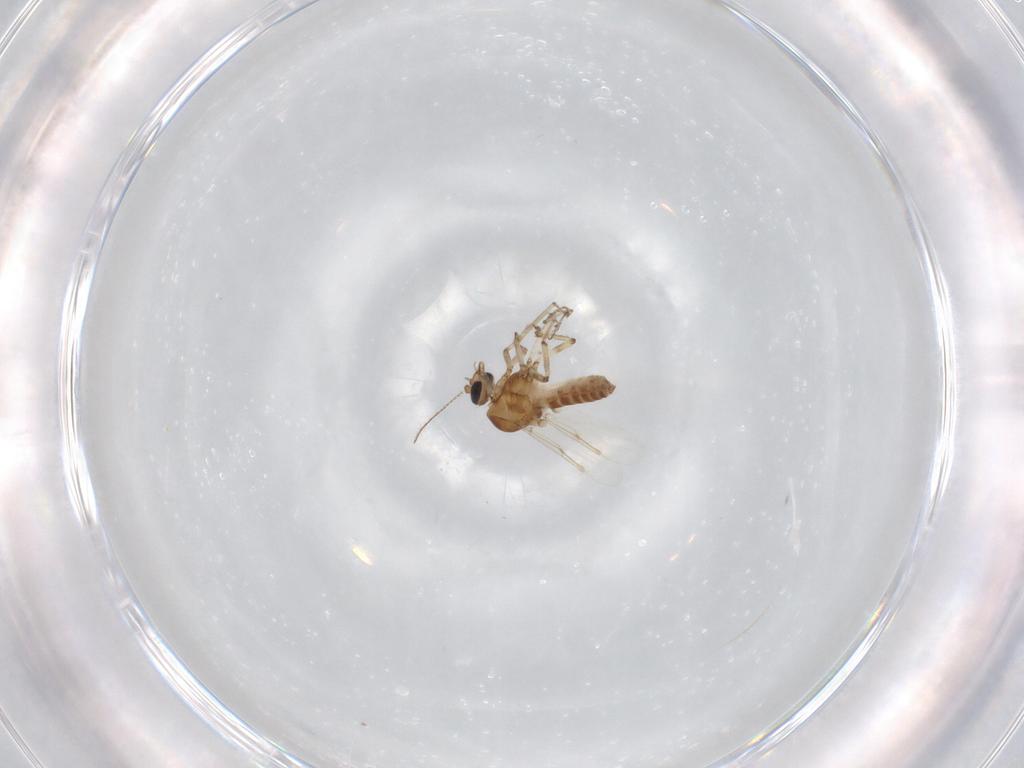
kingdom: Animalia
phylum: Arthropoda
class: Insecta
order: Diptera
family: Ceratopogonidae
